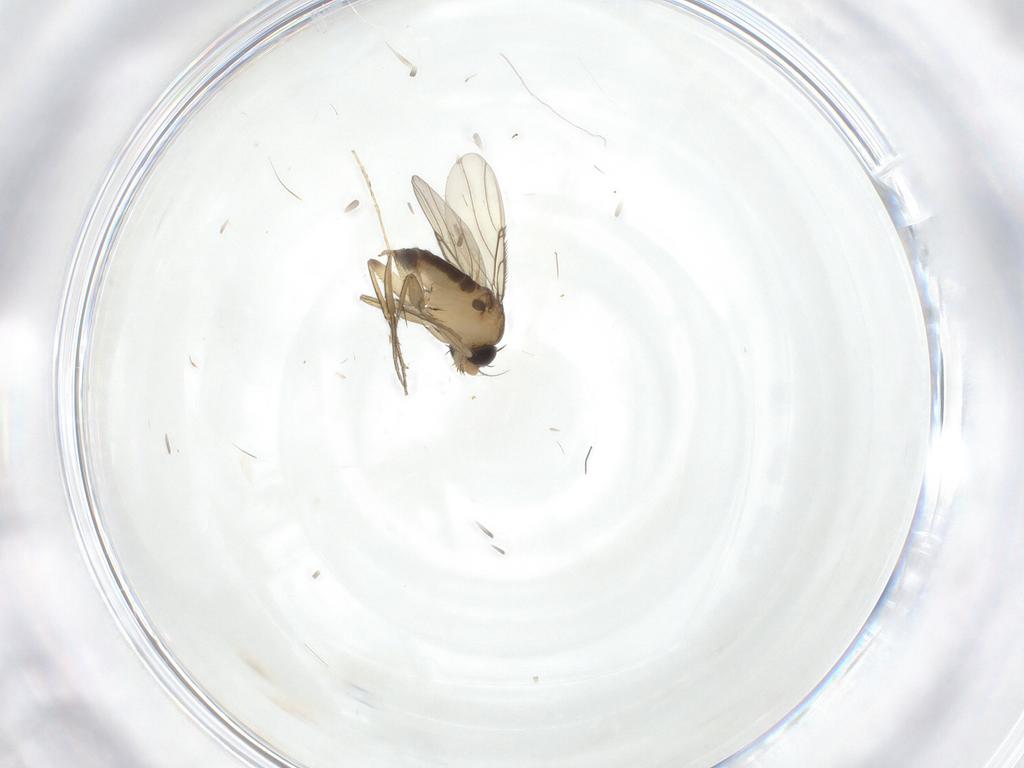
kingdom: Animalia
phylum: Arthropoda
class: Insecta
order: Diptera
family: Phoridae
